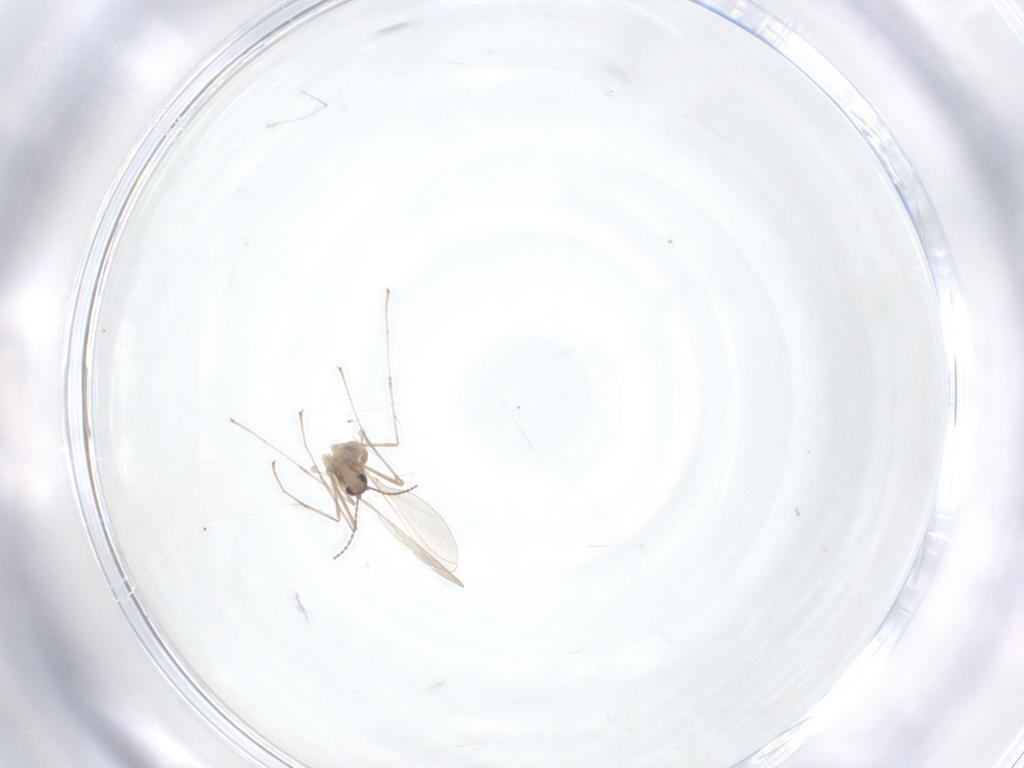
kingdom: Animalia
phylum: Arthropoda
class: Insecta
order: Diptera
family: Cecidomyiidae
